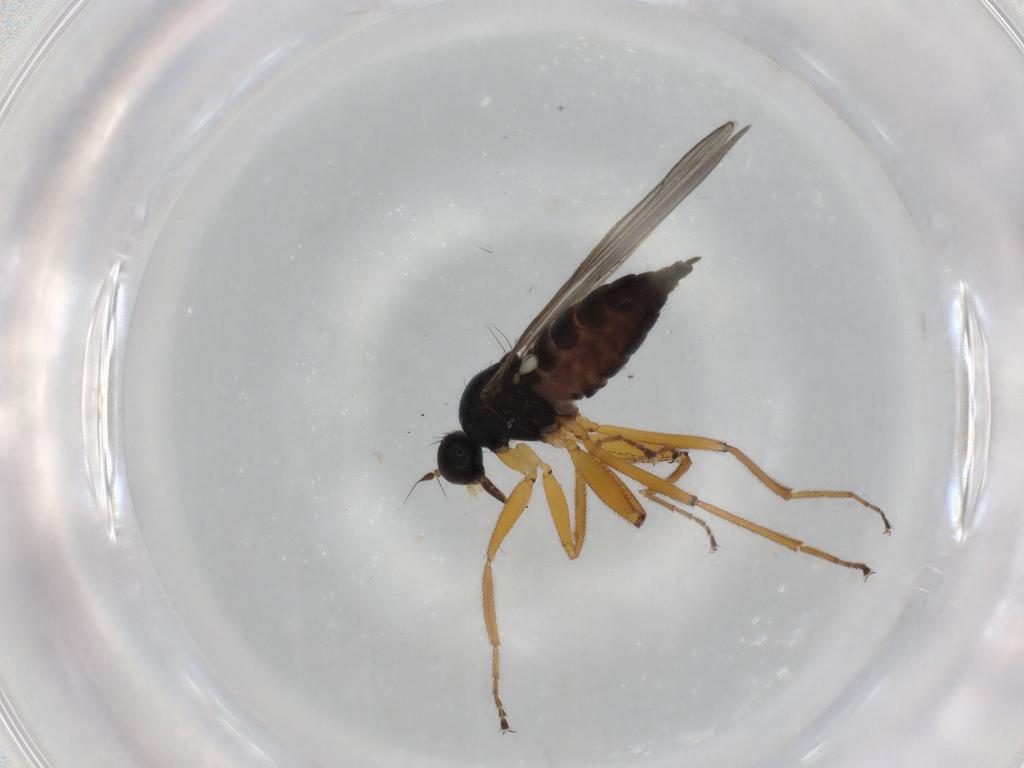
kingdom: Animalia
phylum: Arthropoda
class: Insecta
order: Diptera
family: Hybotidae
